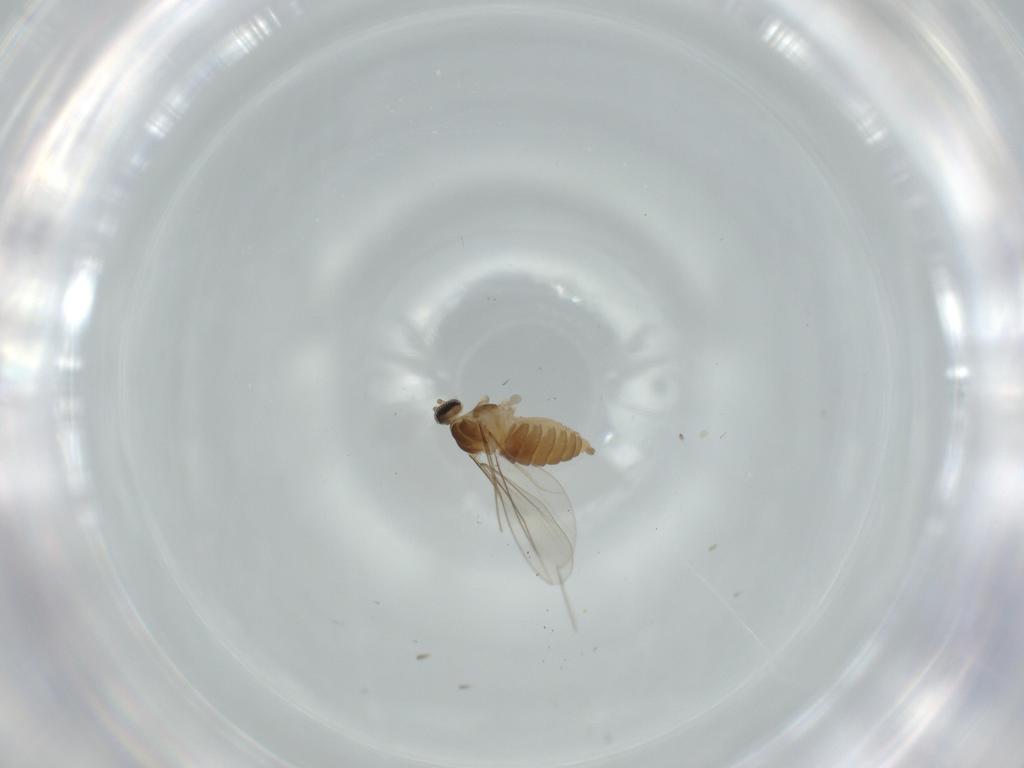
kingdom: Animalia
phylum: Arthropoda
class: Insecta
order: Diptera
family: Cecidomyiidae
